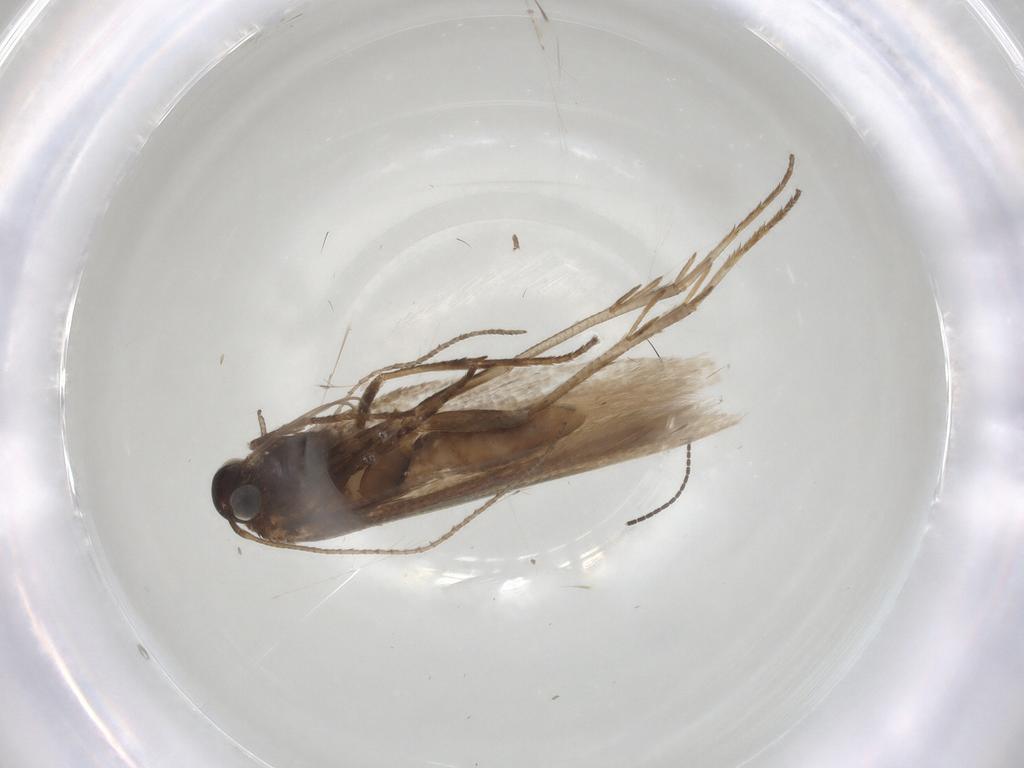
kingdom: Animalia
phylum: Arthropoda
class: Insecta
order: Lepidoptera
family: Gelechiidae
